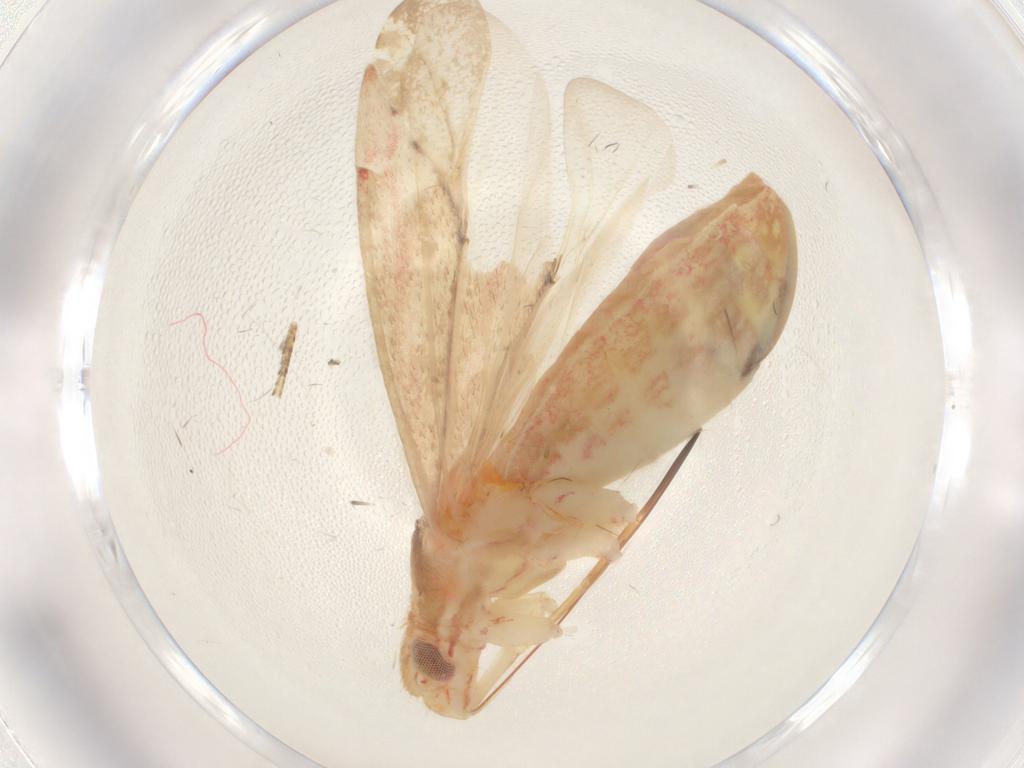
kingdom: Animalia
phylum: Arthropoda
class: Insecta
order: Hemiptera
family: Miridae
